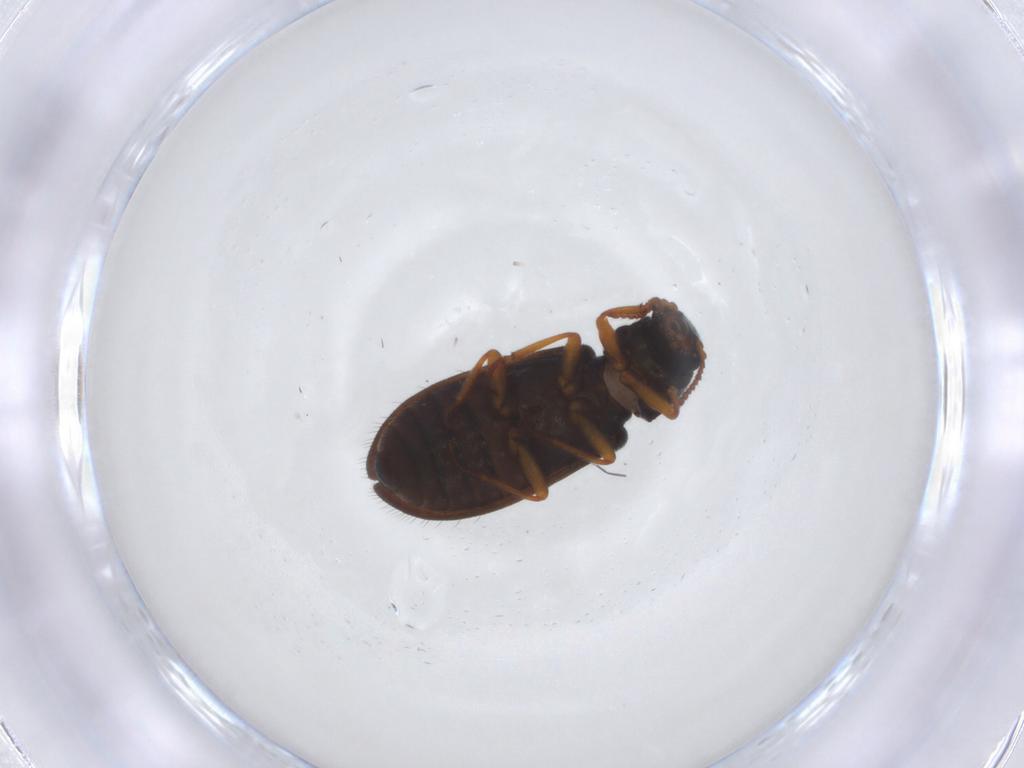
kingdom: Animalia
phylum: Arthropoda
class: Insecta
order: Coleoptera
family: Melyridae
